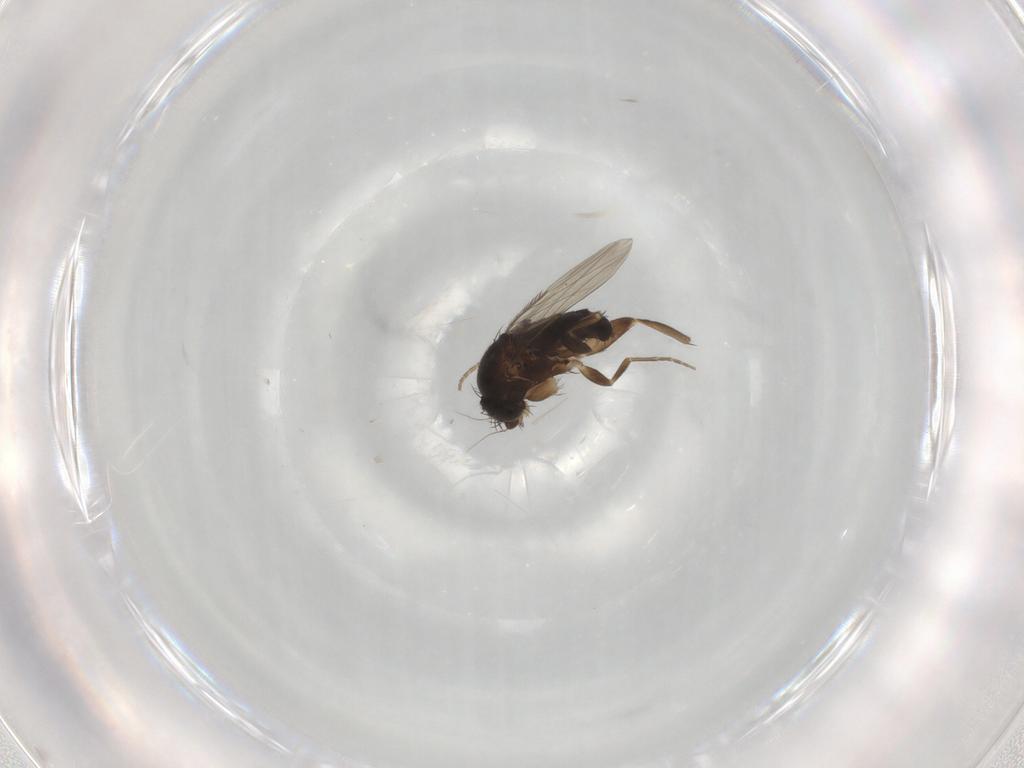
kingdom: Animalia
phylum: Arthropoda
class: Insecta
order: Diptera
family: Phoridae
